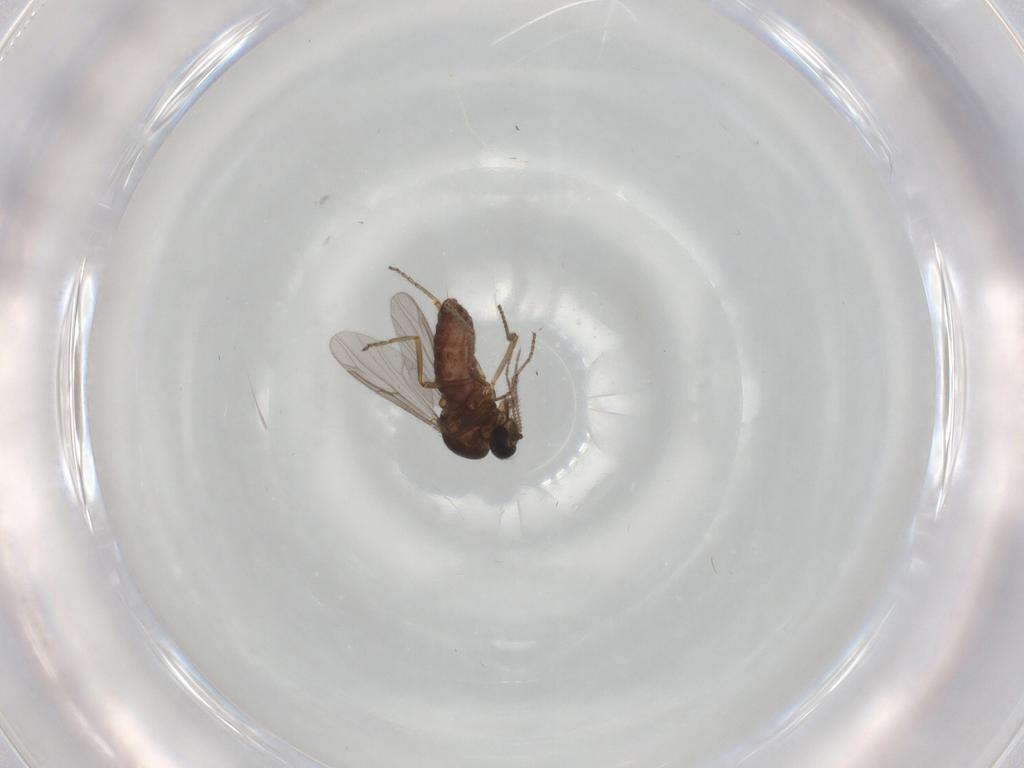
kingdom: Animalia
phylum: Arthropoda
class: Insecta
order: Diptera
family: Ceratopogonidae
